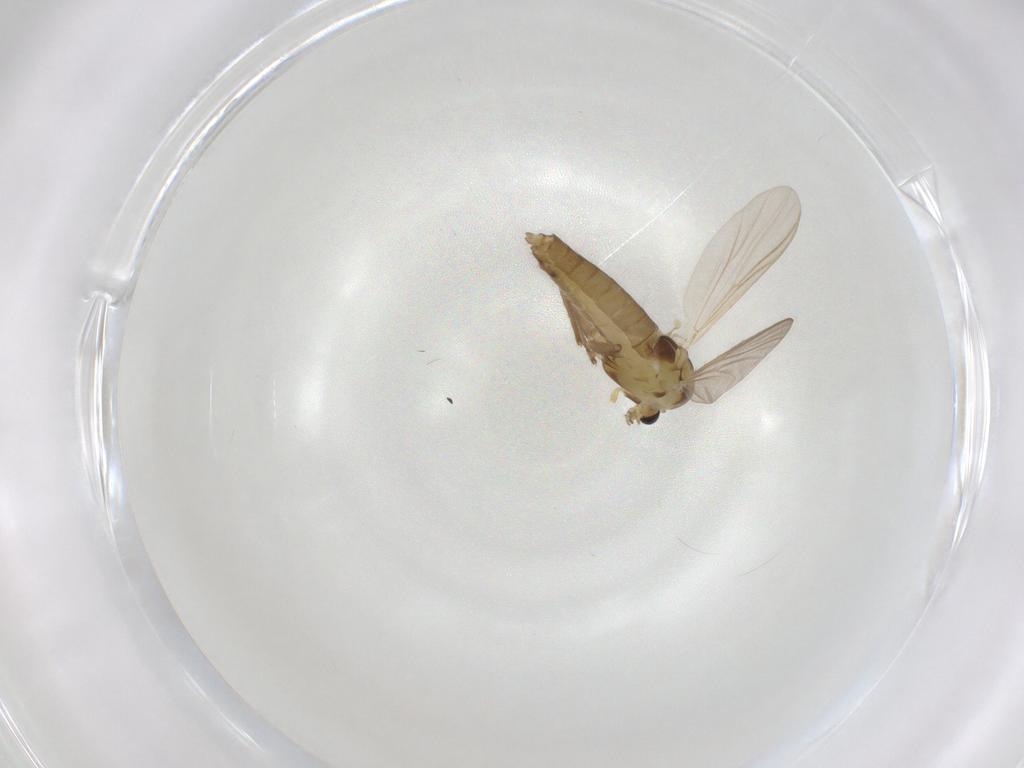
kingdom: Animalia
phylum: Arthropoda
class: Insecta
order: Diptera
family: Chironomidae
